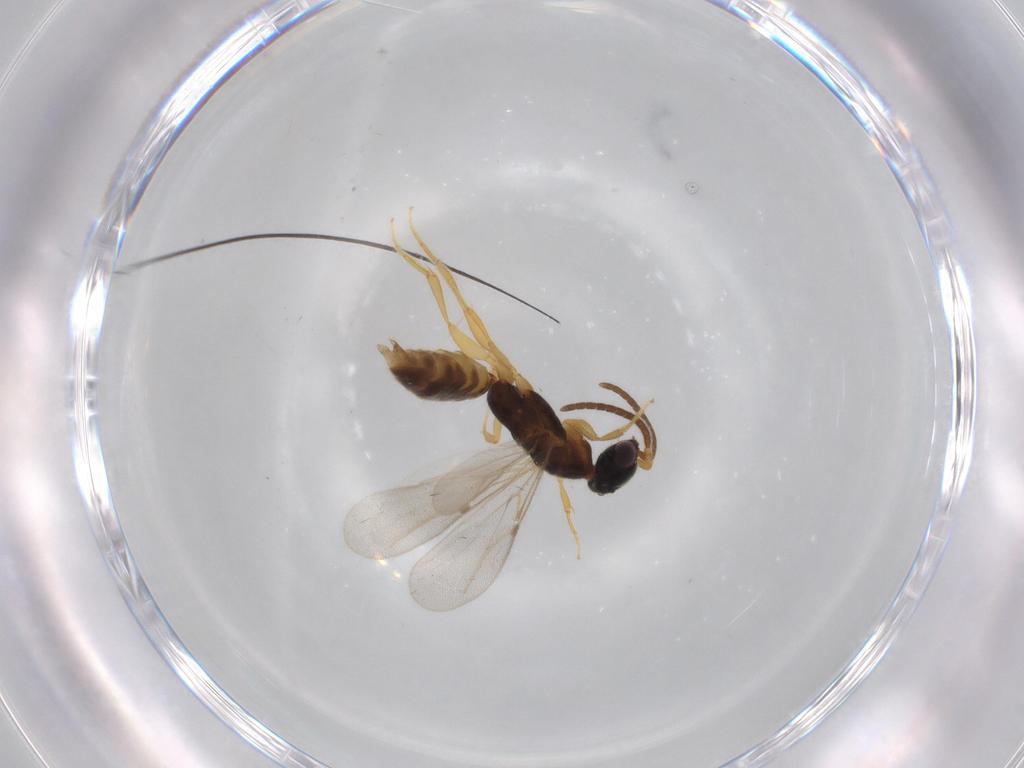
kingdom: Animalia
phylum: Arthropoda
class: Insecta
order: Hymenoptera
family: Bethylidae
